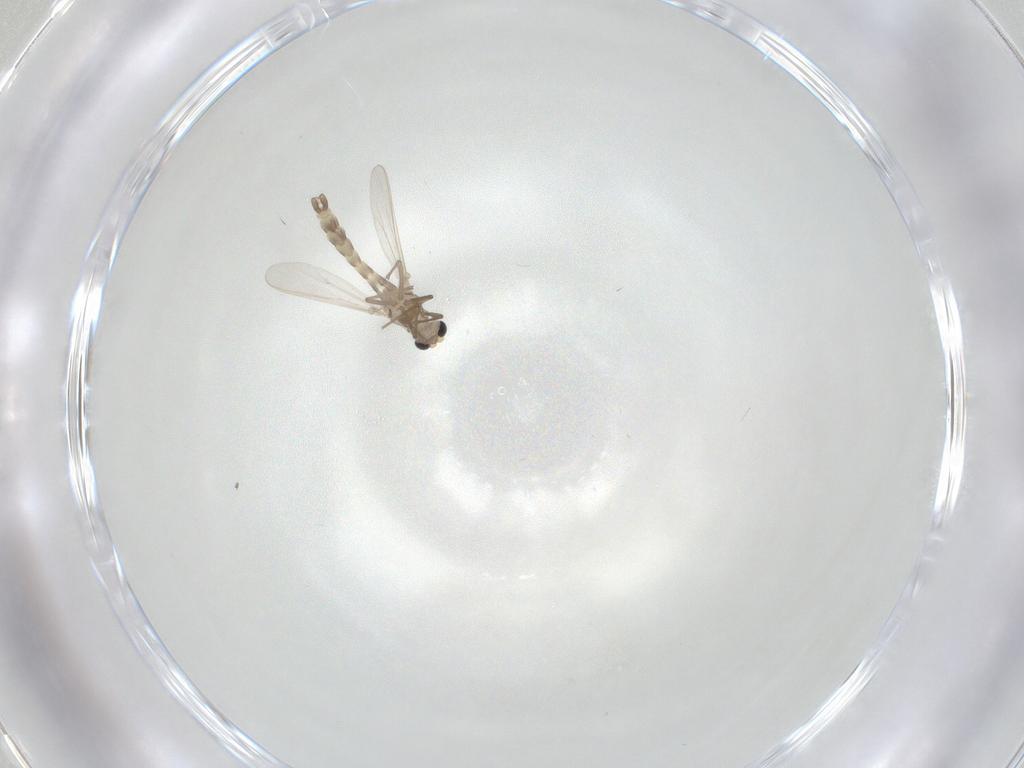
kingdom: Animalia
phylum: Arthropoda
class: Insecta
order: Diptera
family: Chironomidae
